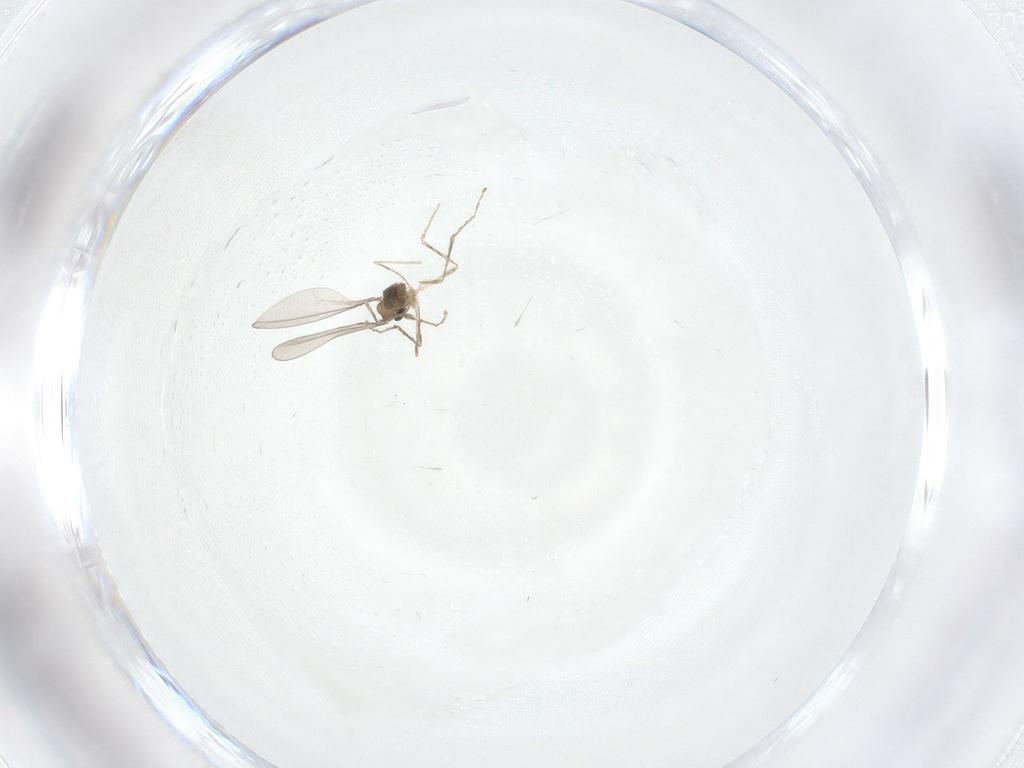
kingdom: Animalia
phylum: Arthropoda
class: Insecta
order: Diptera
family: Cecidomyiidae
